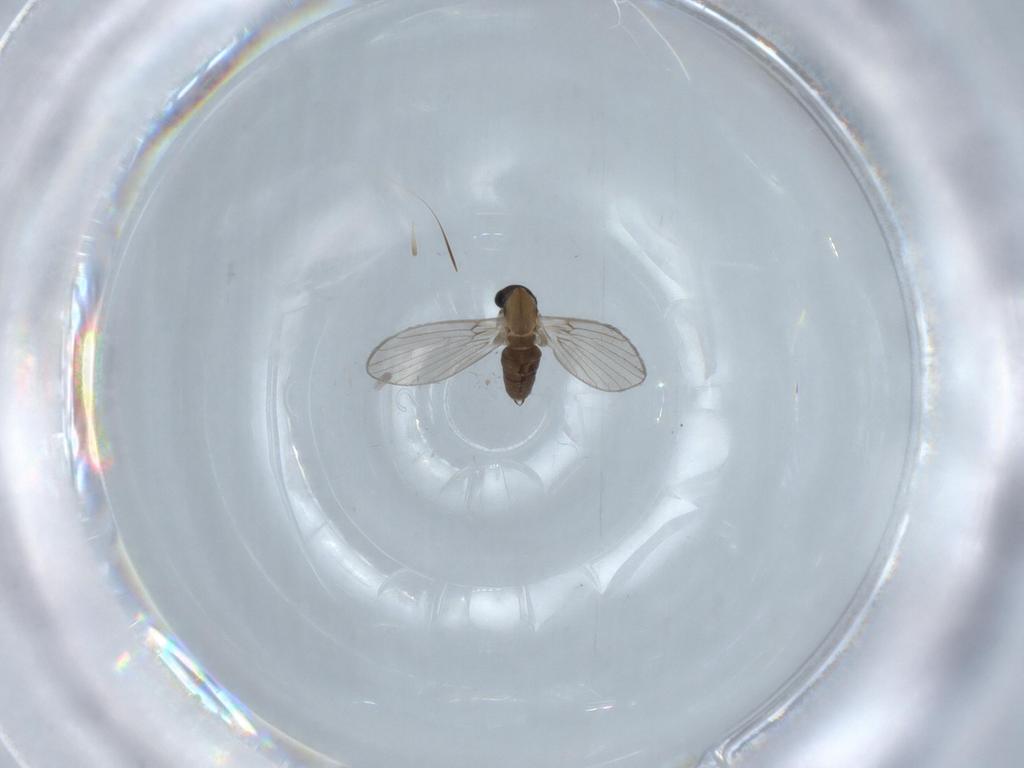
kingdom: Animalia
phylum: Arthropoda
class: Insecta
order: Diptera
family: Psychodidae
